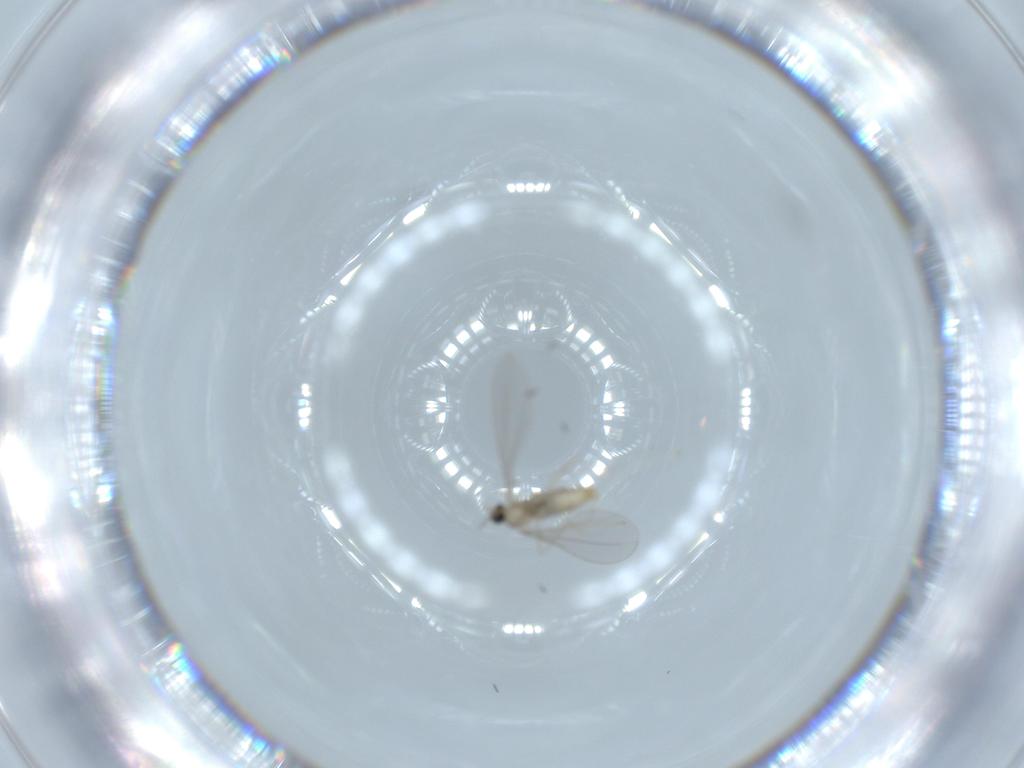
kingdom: Animalia
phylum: Arthropoda
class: Insecta
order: Diptera
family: Cecidomyiidae
